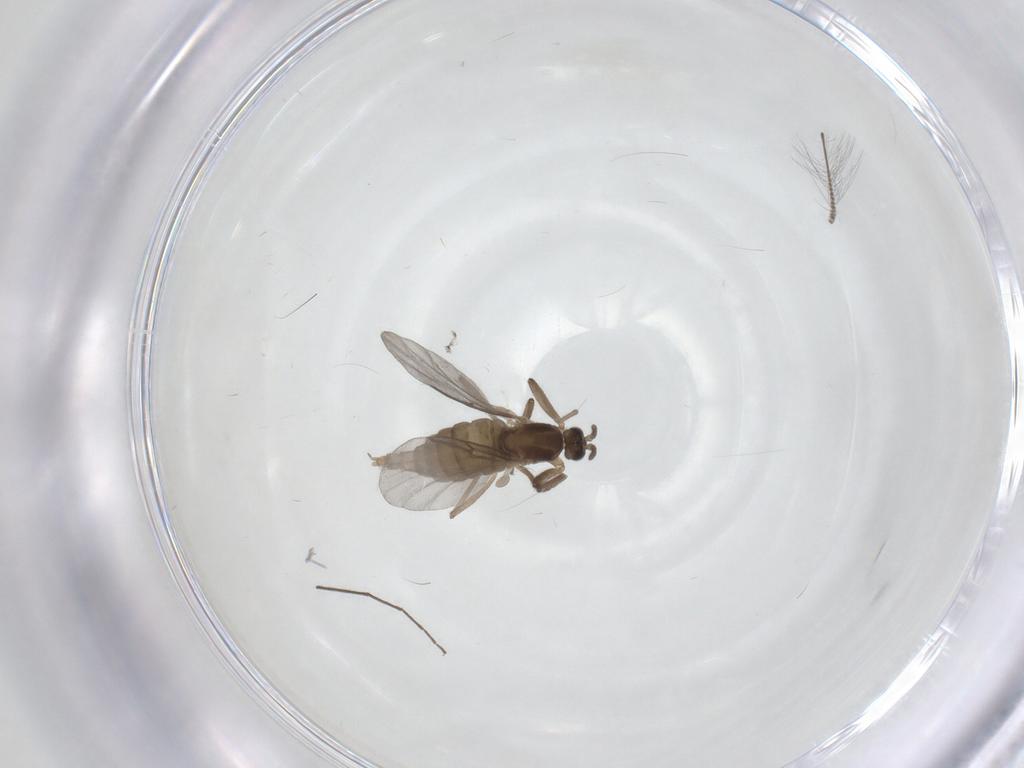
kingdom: Animalia
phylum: Arthropoda
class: Insecta
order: Diptera
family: Cecidomyiidae
